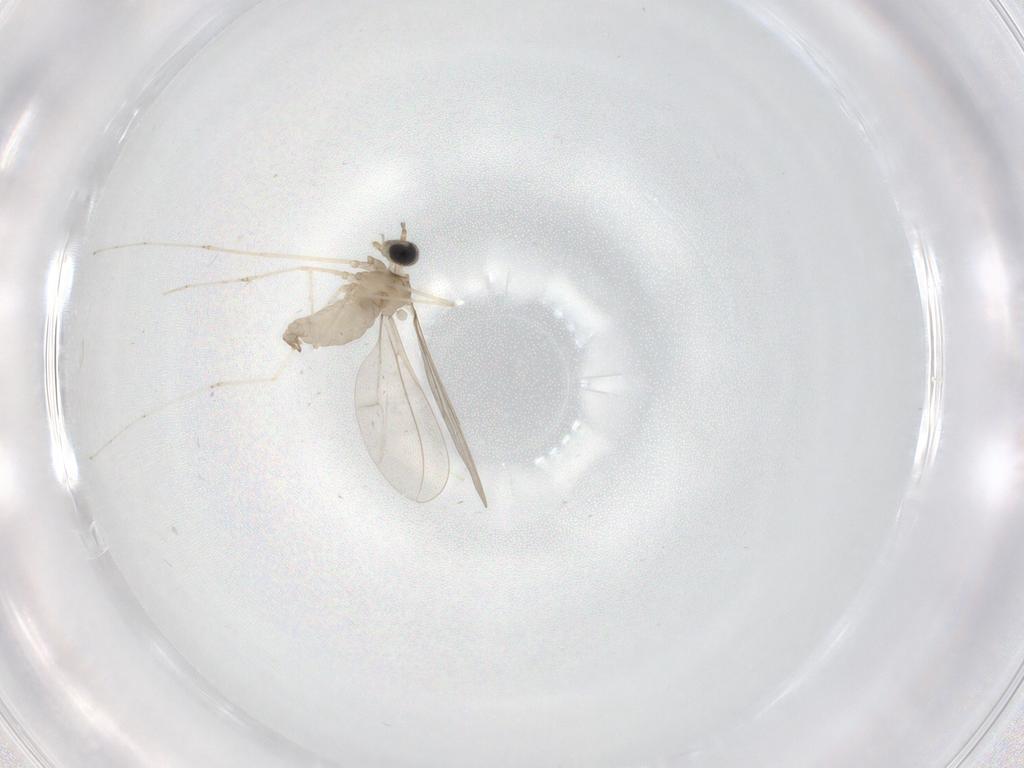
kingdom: Animalia
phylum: Arthropoda
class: Insecta
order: Diptera
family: Cecidomyiidae
